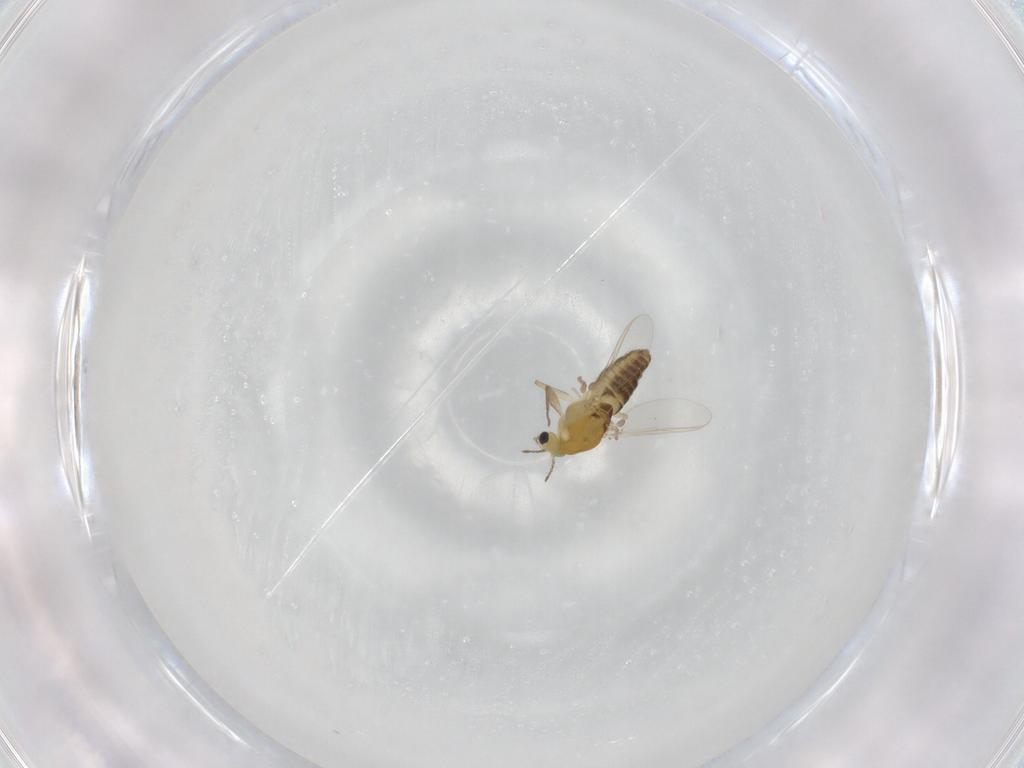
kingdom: Animalia
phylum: Arthropoda
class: Insecta
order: Diptera
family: Chironomidae
